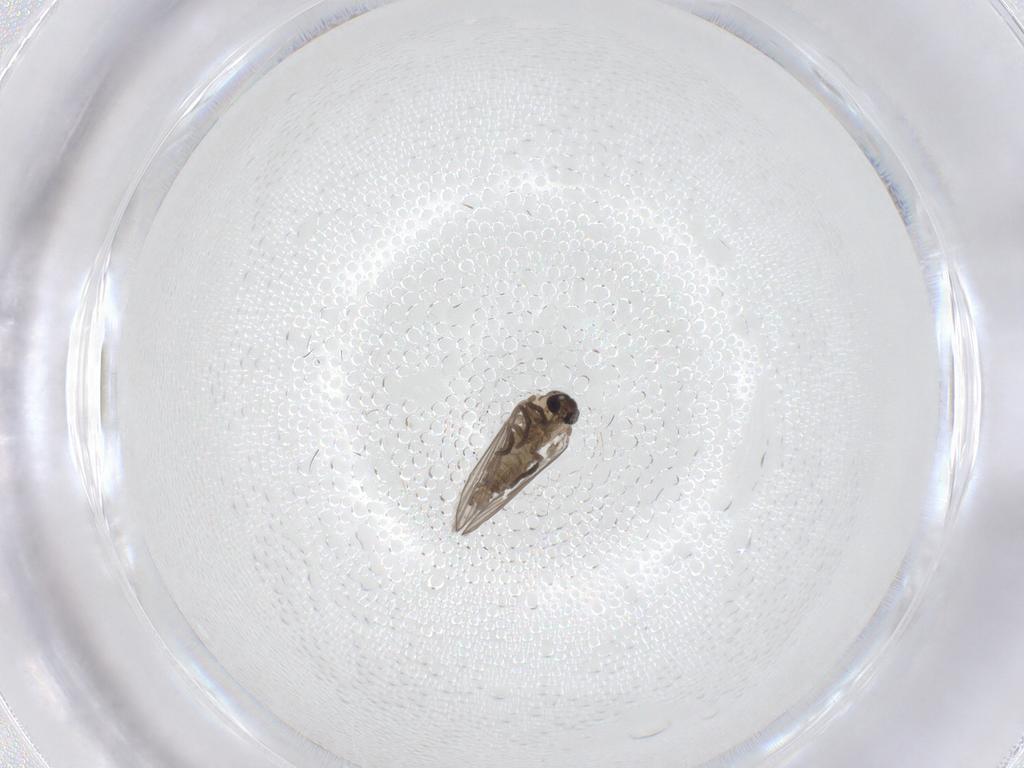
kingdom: Animalia
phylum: Arthropoda
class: Insecta
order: Diptera
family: Psychodidae
